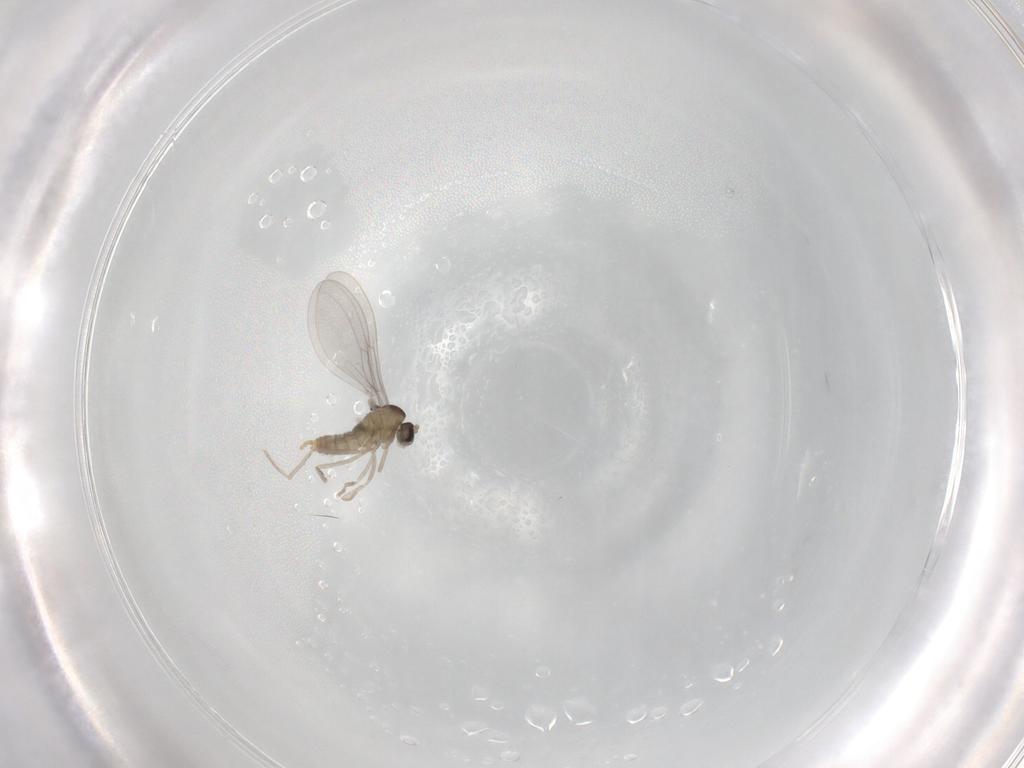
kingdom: Animalia
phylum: Arthropoda
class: Insecta
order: Diptera
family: Cecidomyiidae
